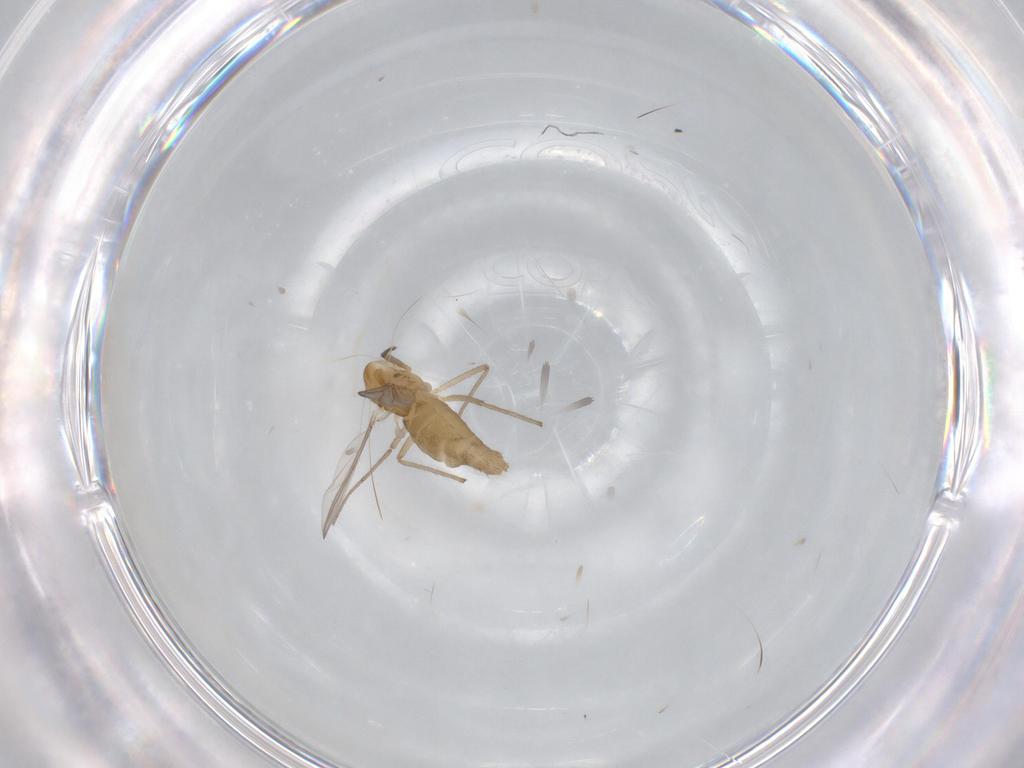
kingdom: Animalia
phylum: Arthropoda
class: Insecta
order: Diptera
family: Chironomidae
